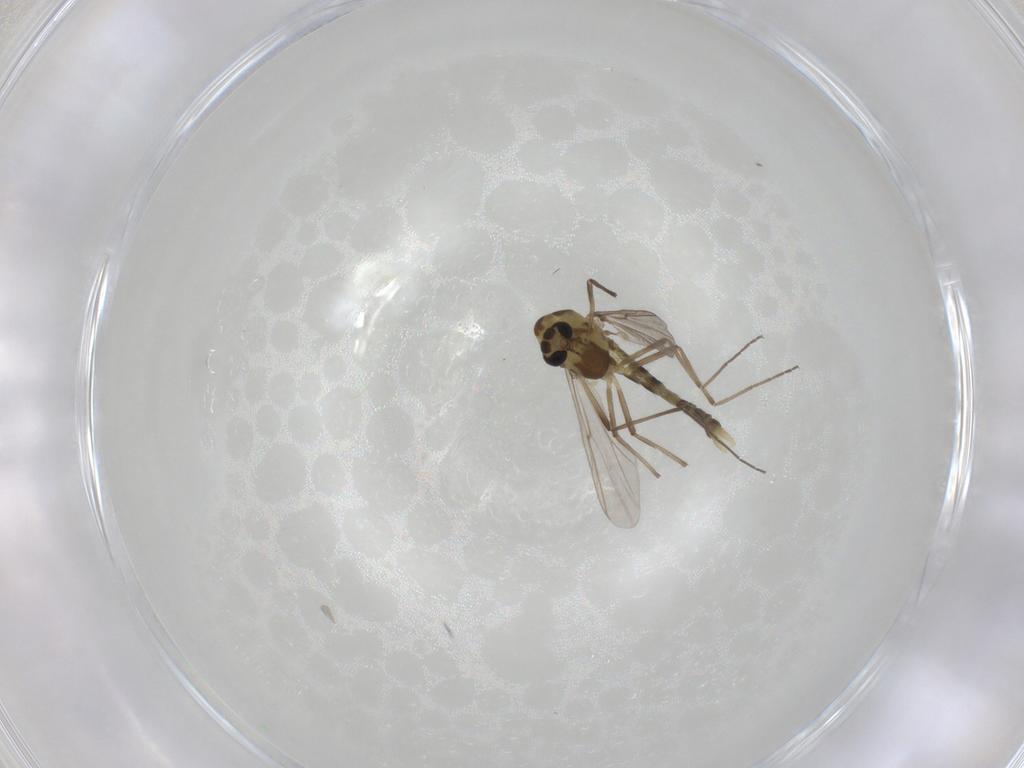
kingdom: Animalia
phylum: Arthropoda
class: Insecta
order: Diptera
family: Chironomidae
